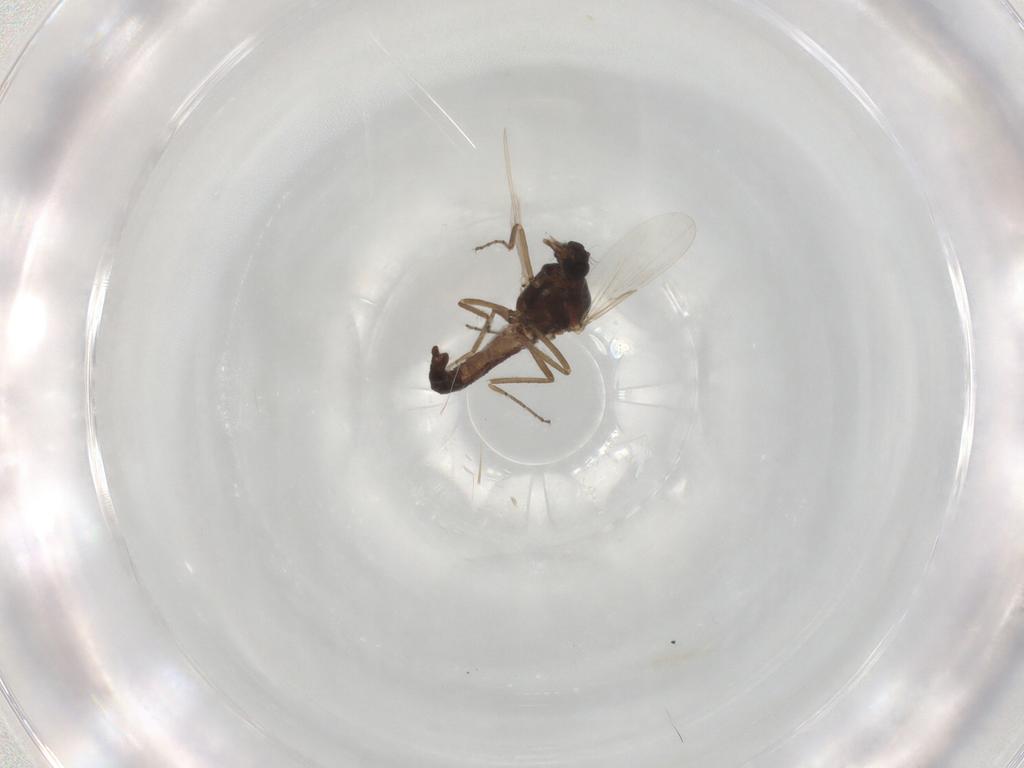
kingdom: Animalia
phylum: Arthropoda
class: Insecta
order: Diptera
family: Ceratopogonidae
